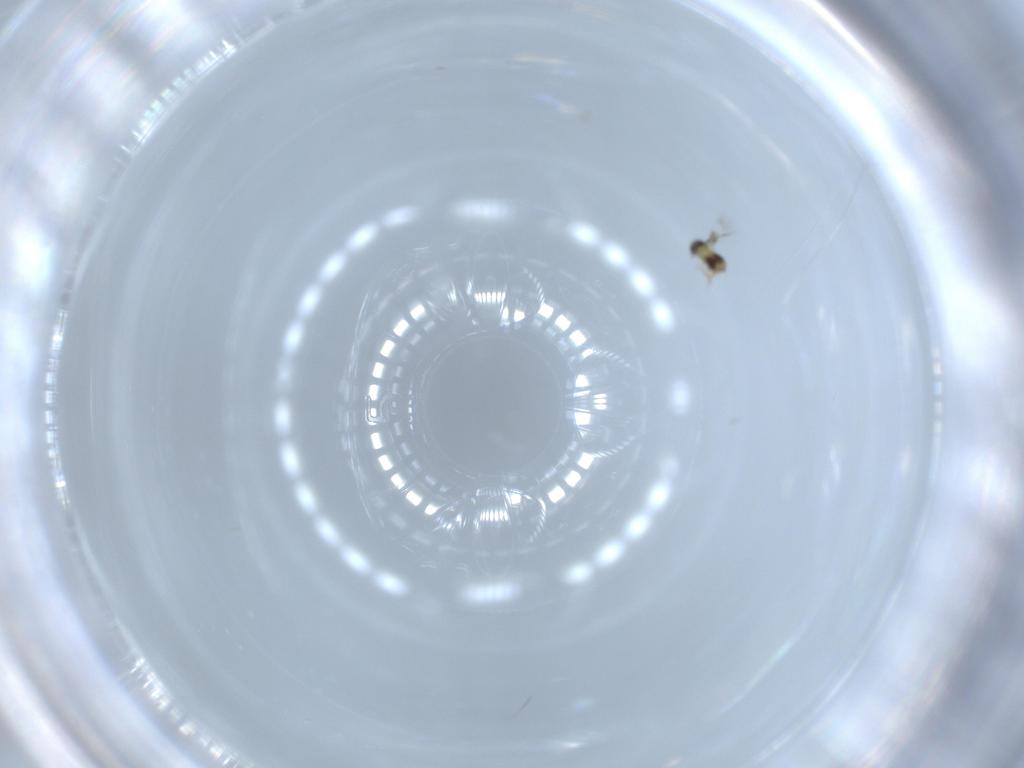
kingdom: Animalia
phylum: Arthropoda
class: Insecta
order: Hymenoptera
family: Signiphoridae
